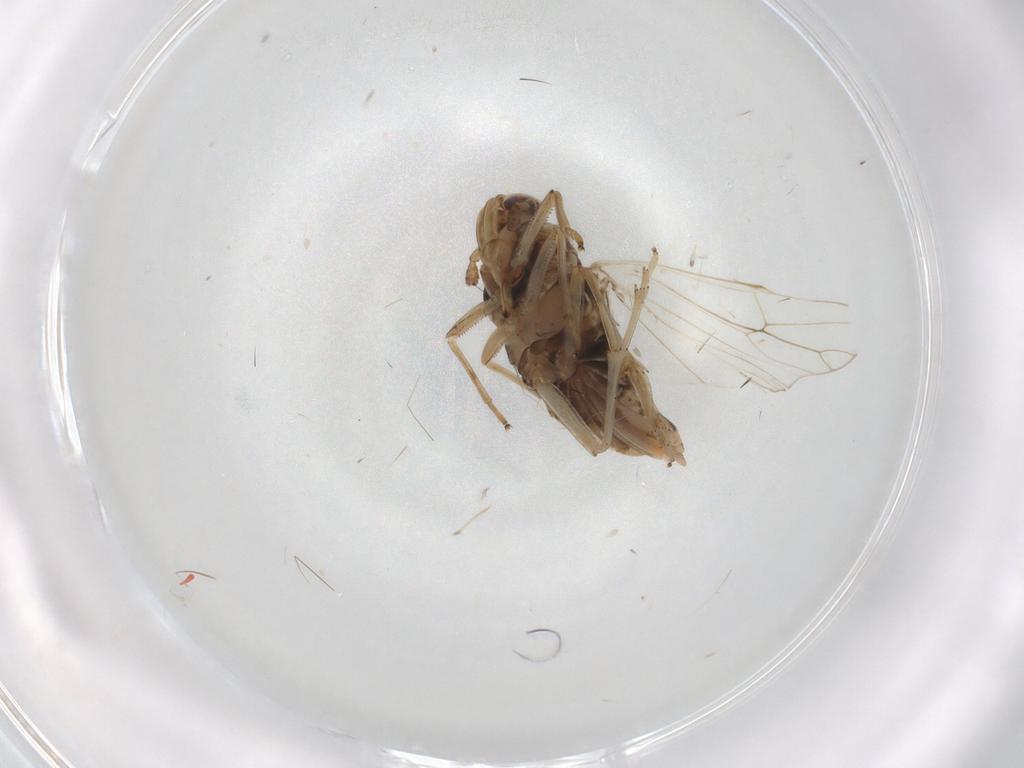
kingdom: Animalia
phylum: Arthropoda
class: Insecta
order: Hemiptera
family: Delphacidae
